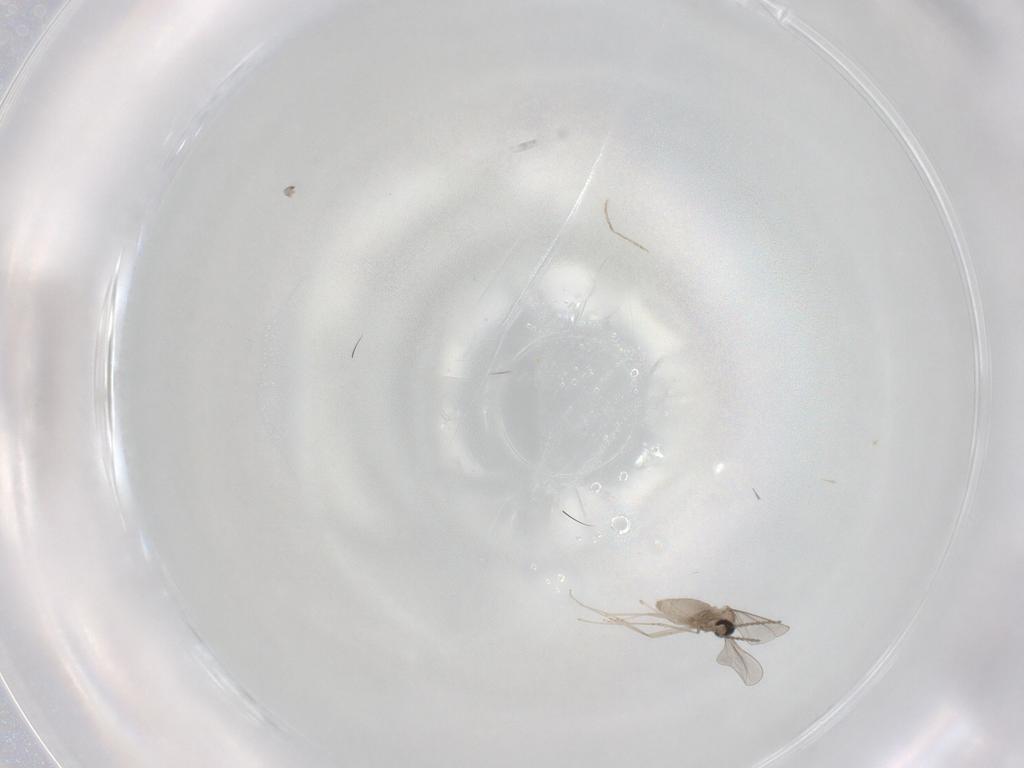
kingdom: Animalia
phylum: Arthropoda
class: Insecta
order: Diptera
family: Cecidomyiidae
